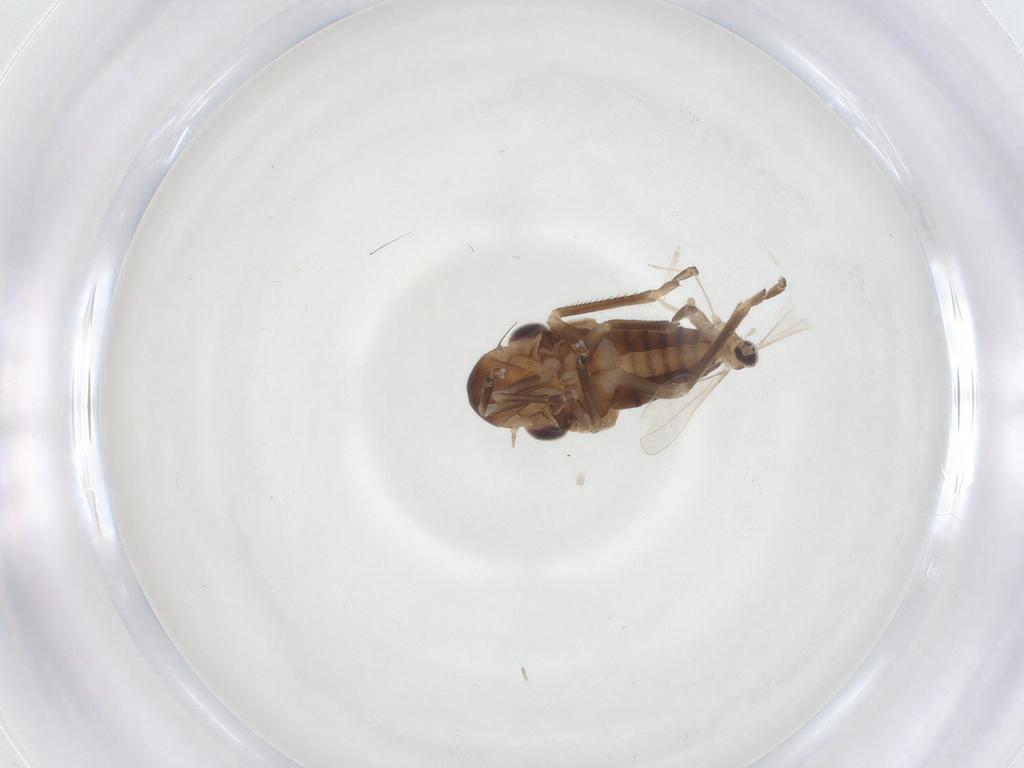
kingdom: Animalia
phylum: Arthropoda
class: Insecta
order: Diptera
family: Cecidomyiidae
